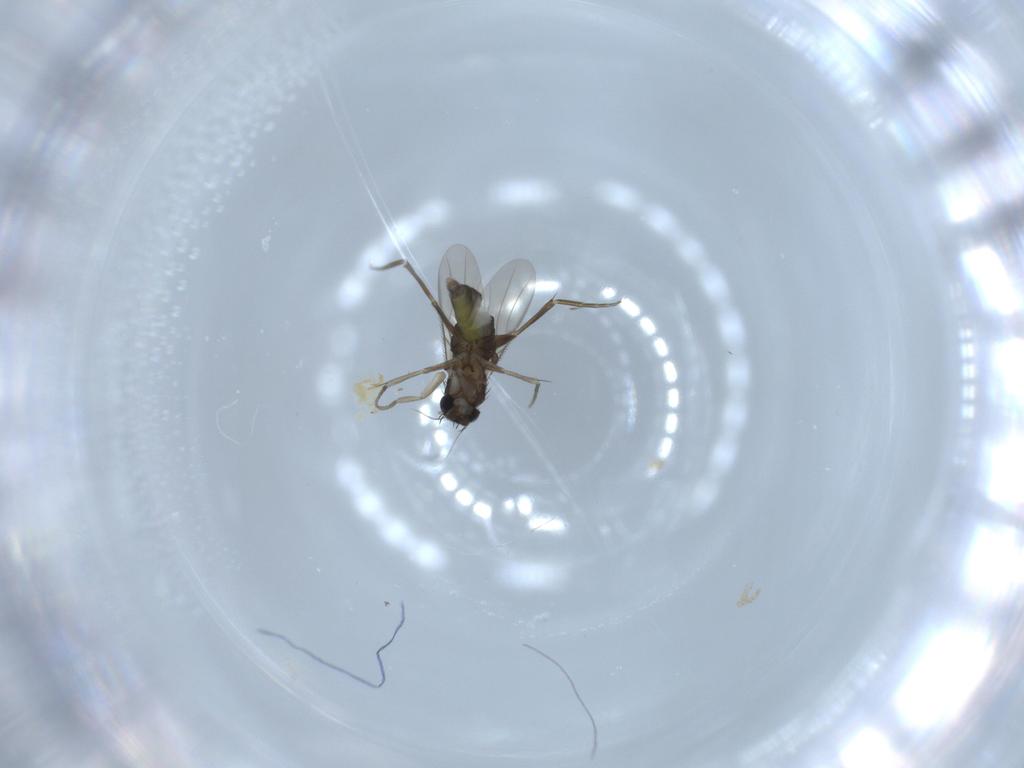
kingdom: Animalia
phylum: Arthropoda
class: Insecta
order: Diptera
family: Phoridae
